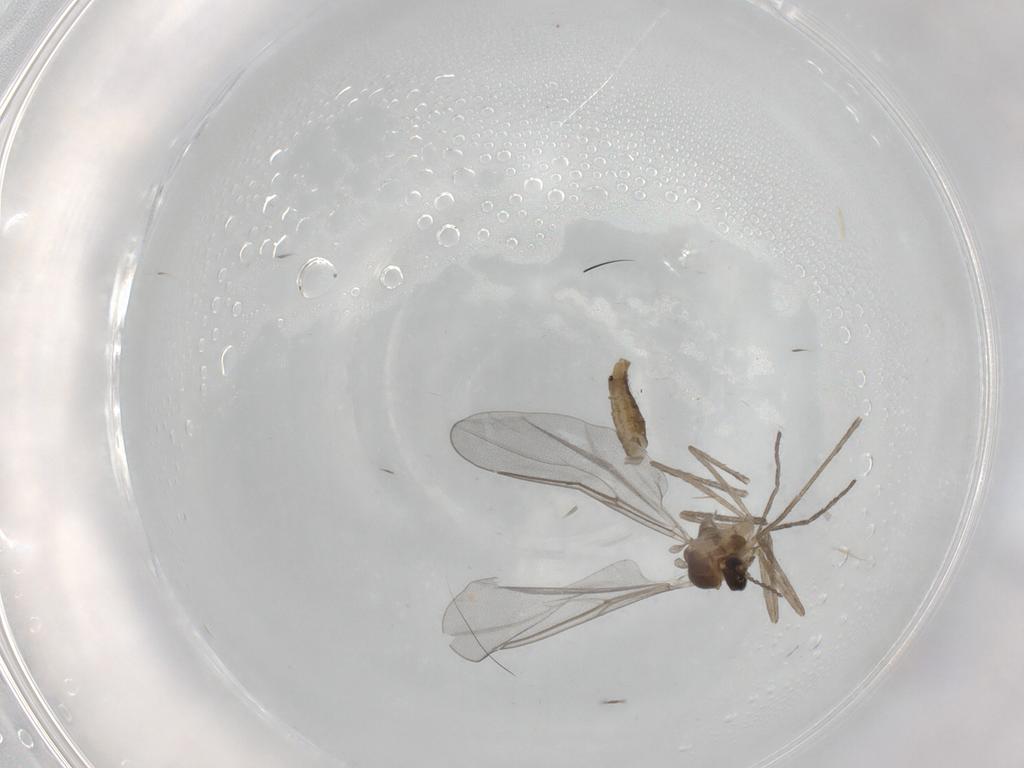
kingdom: Animalia
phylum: Arthropoda
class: Insecta
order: Diptera
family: Cecidomyiidae
